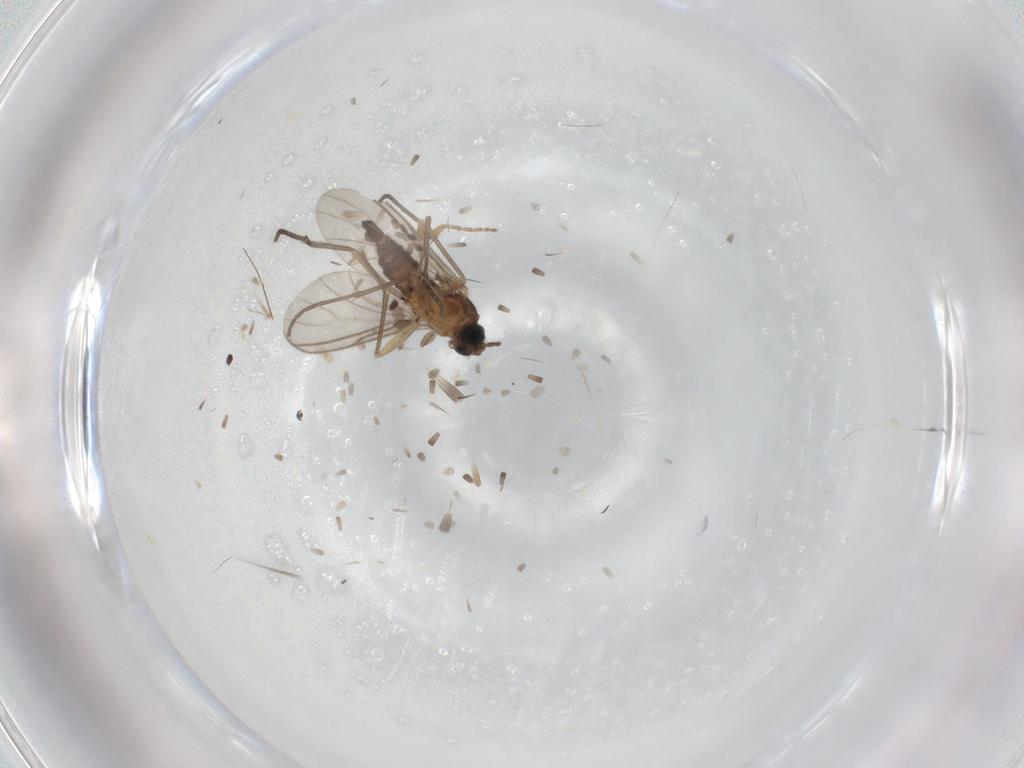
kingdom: Animalia
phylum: Arthropoda
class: Insecta
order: Diptera
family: Sciaridae
